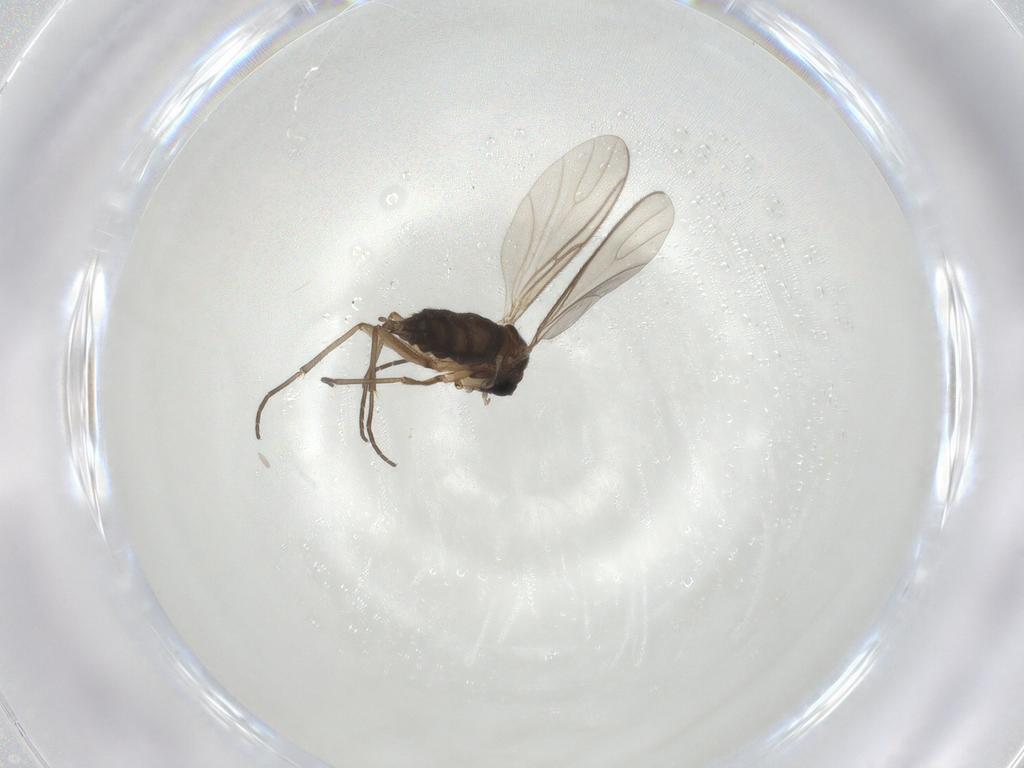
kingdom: Animalia
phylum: Arthropoda
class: Insecta
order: Diptera
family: Sciaridae
